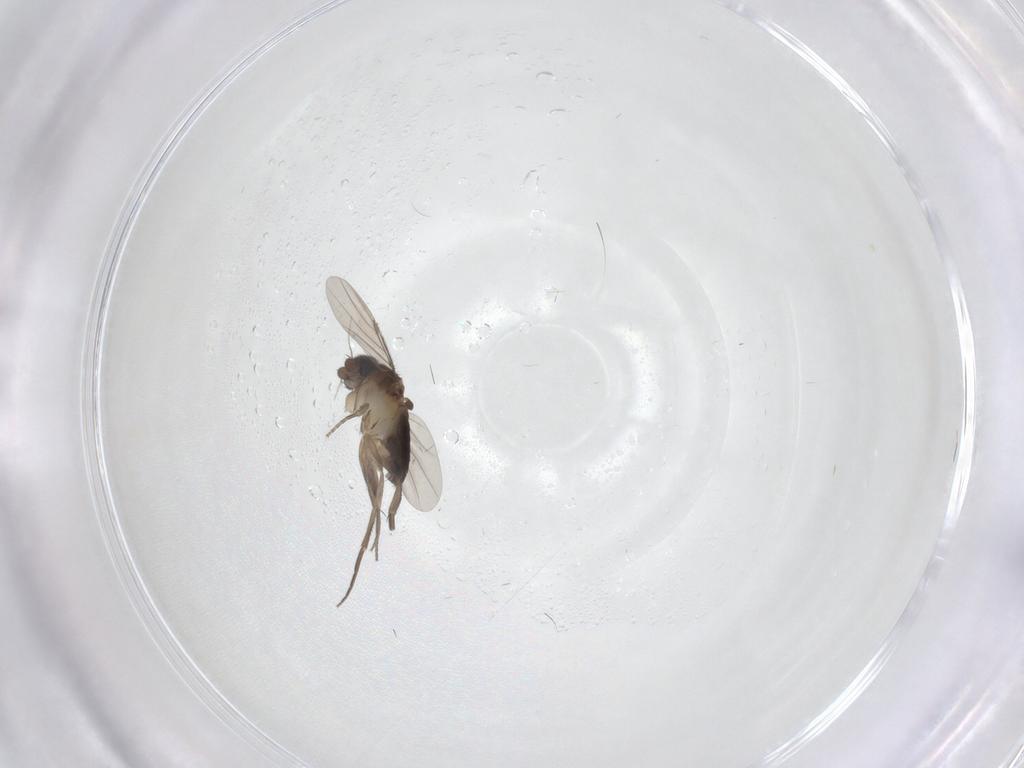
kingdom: Animalia
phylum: Arthropoda
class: Insecta
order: Diptera
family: Phoridae
